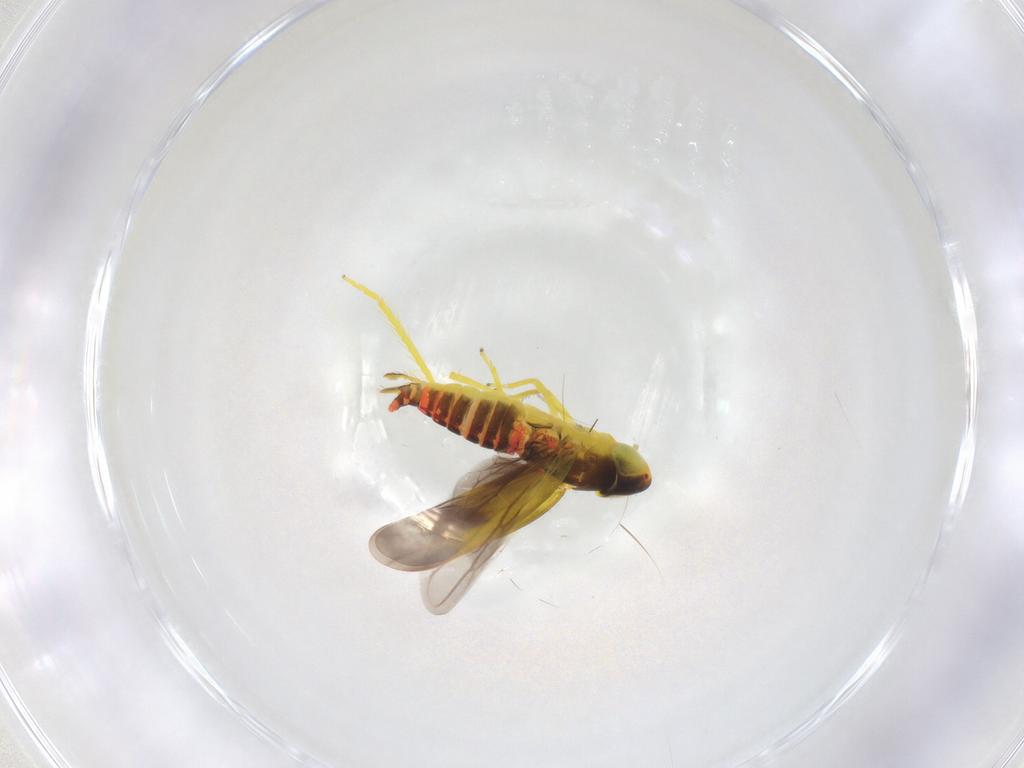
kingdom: Animalia
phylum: Arthropoda
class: Insecta
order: Hemiptera
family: Cicadellidae
